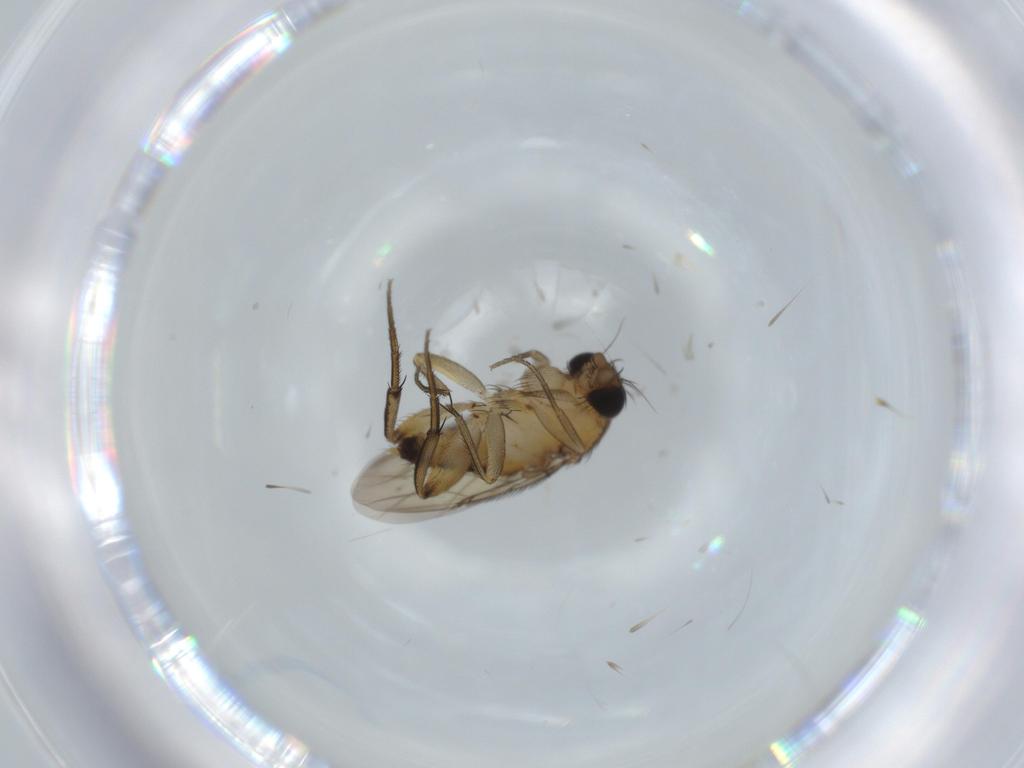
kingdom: Animalia
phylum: Arthropoda
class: Insecta
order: Diptera
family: Phoridae
